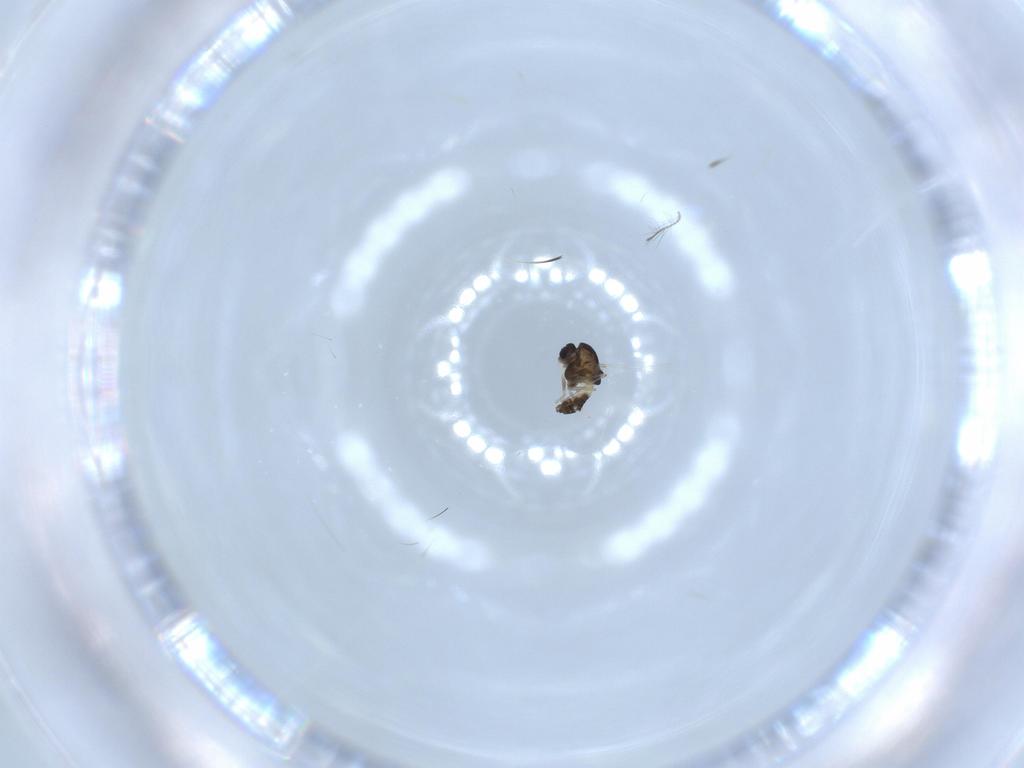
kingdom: Animalia
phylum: Arthropoda
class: Insecta
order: Diptera
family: Chironomidae
